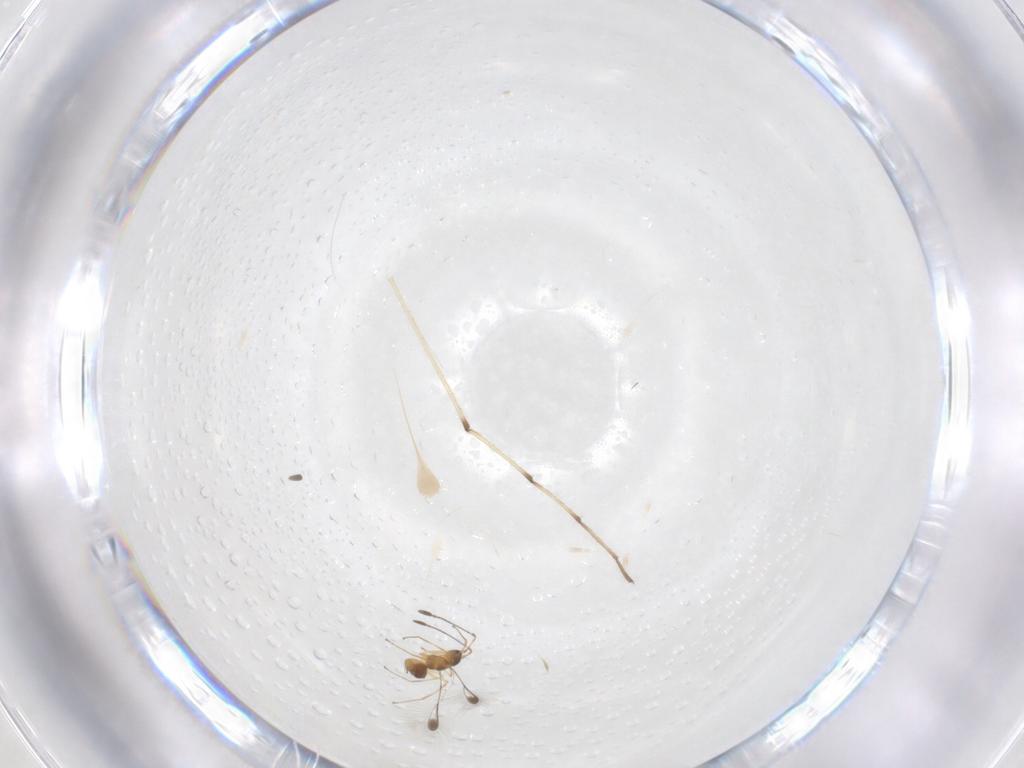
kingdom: Animalia
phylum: Arthropoda
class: Insecta
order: Hymenoptera
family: Mymaridae
